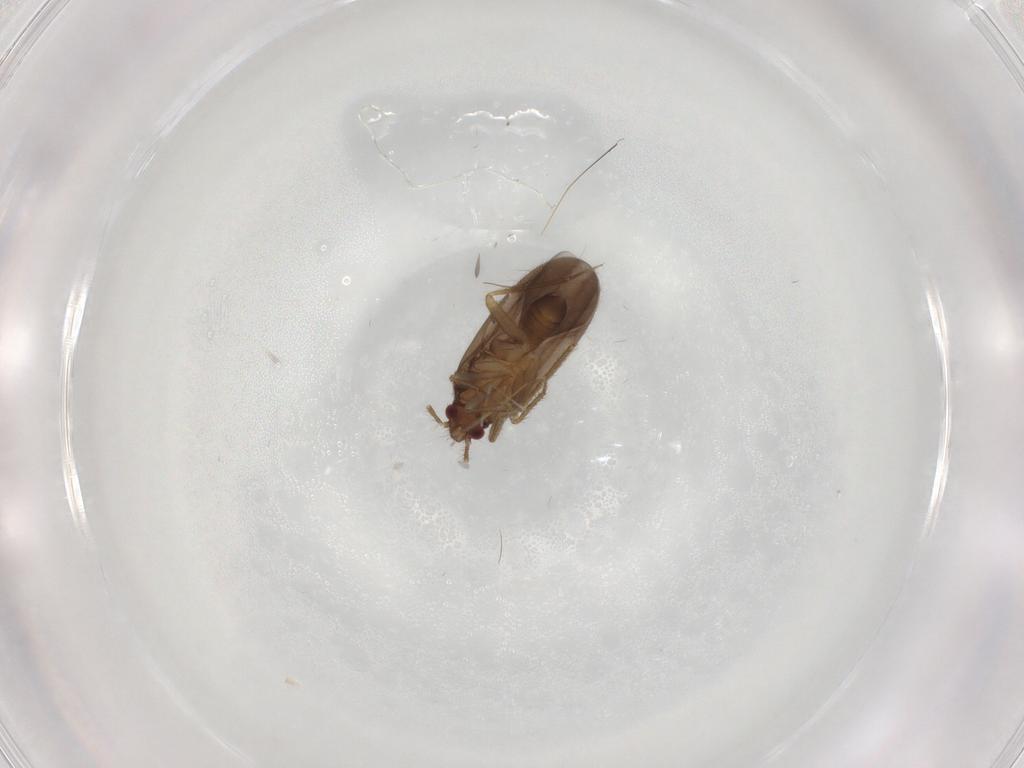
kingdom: Animalia
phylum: Arthropoda
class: Insecta
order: Hemiptera
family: Ceratocombidae
